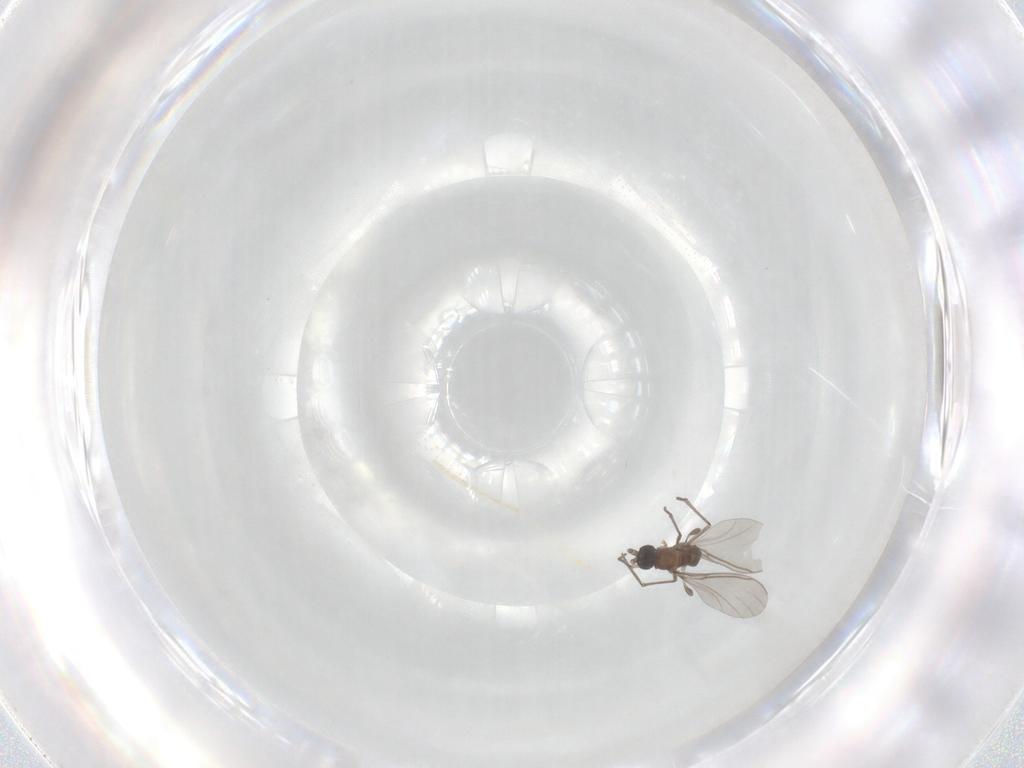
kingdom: Animalia
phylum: Arthropoda
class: Insecta
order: Diptera
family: Sciaridae
